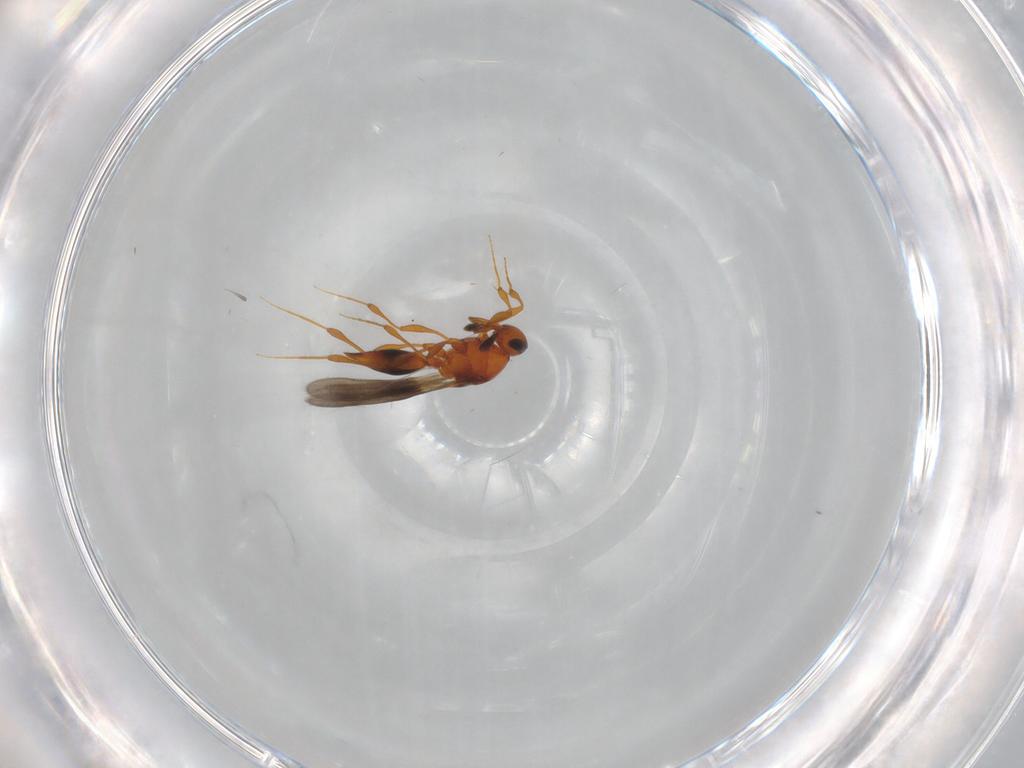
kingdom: Animalia
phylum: Arthropoda
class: Insecta
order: Hymenoptera
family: Platygastridae
